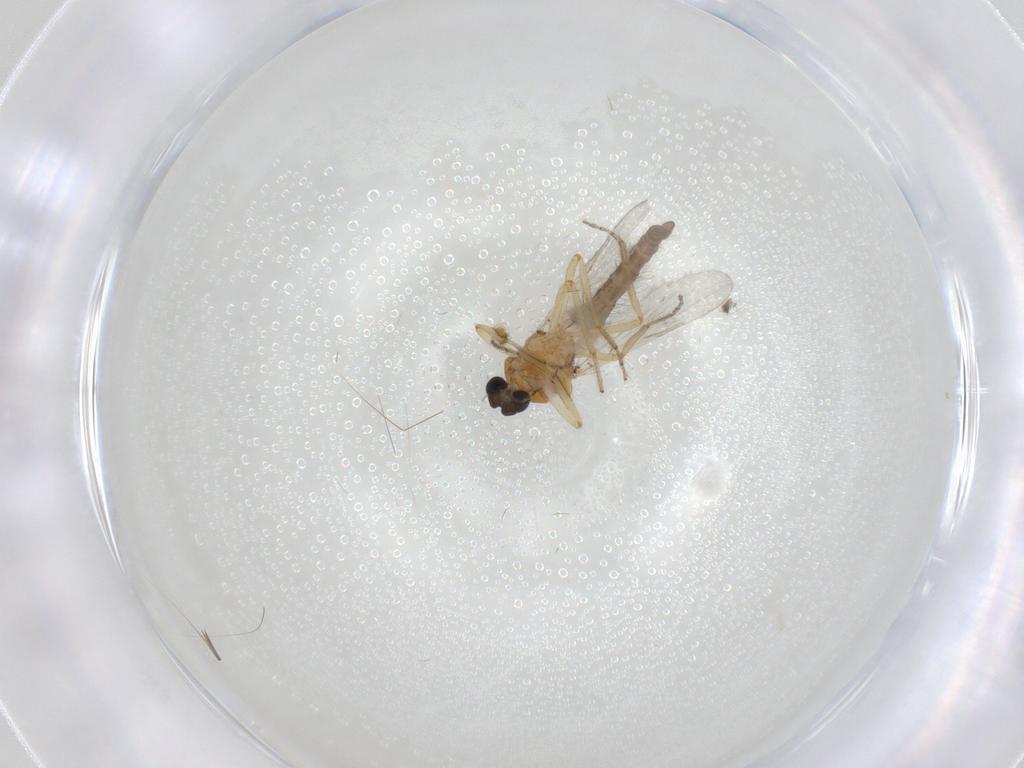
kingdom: Animalia
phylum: Arthropoda
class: Insecta
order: Diptera
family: Ceratopogonidae
